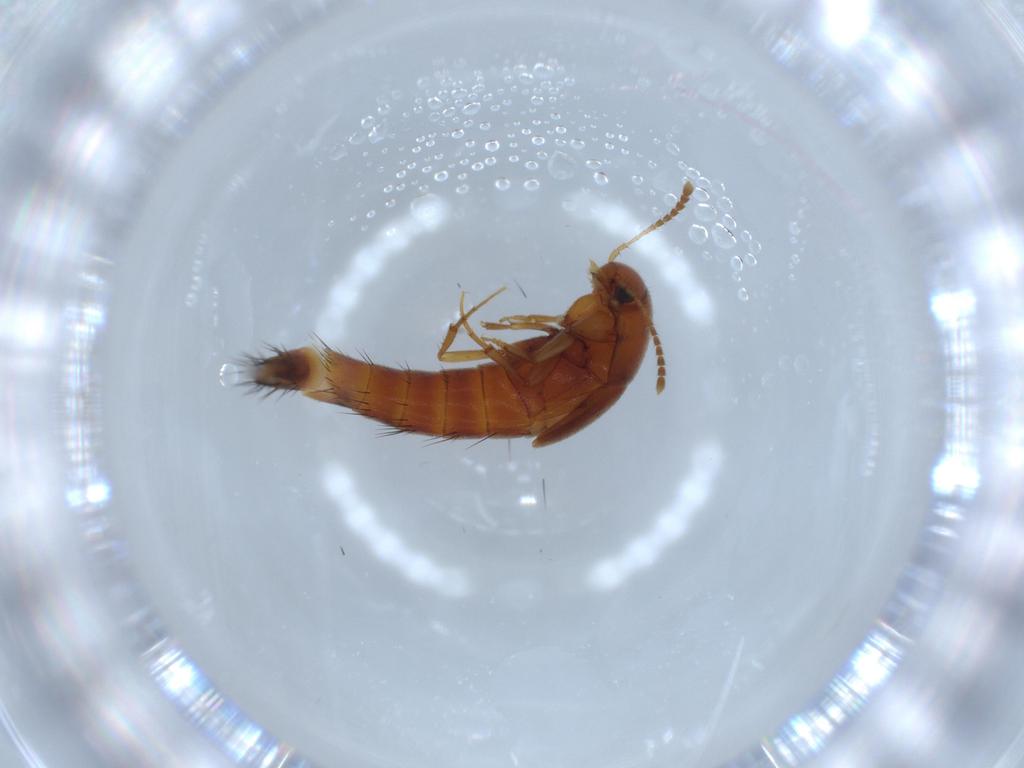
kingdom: Animalia
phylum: Arthropoda
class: Insecta
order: Coleoptera
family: Staphylinidae
